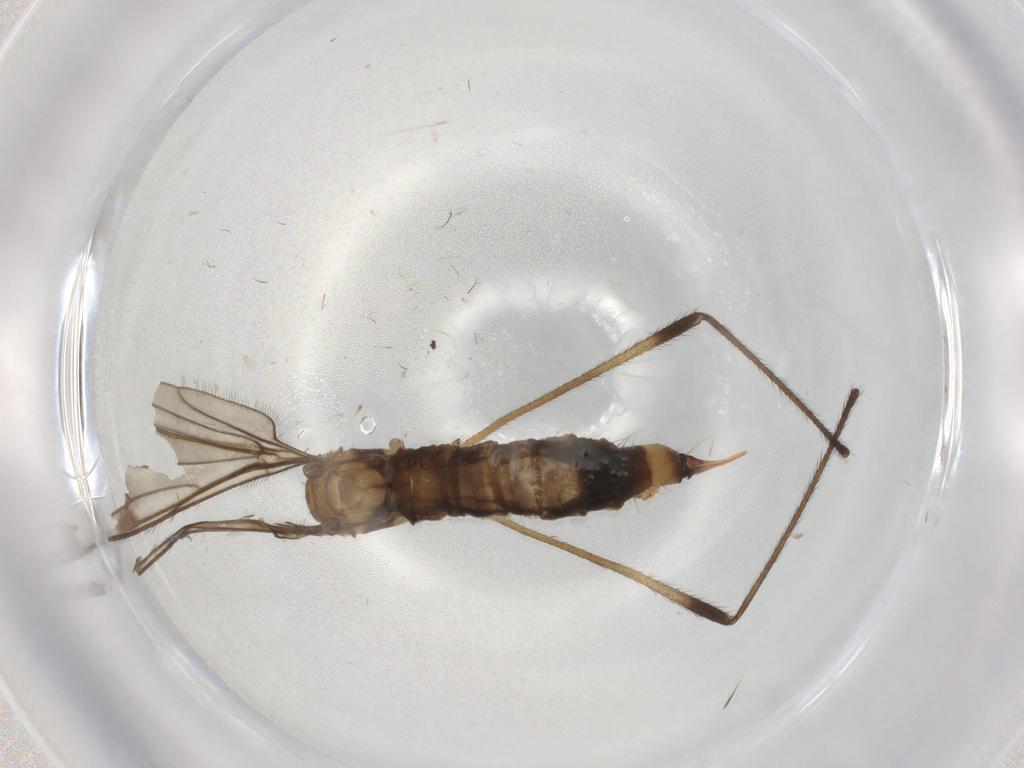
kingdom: Animalia
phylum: Arthropoda
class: Insecta
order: Diptera
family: Limoniidae
